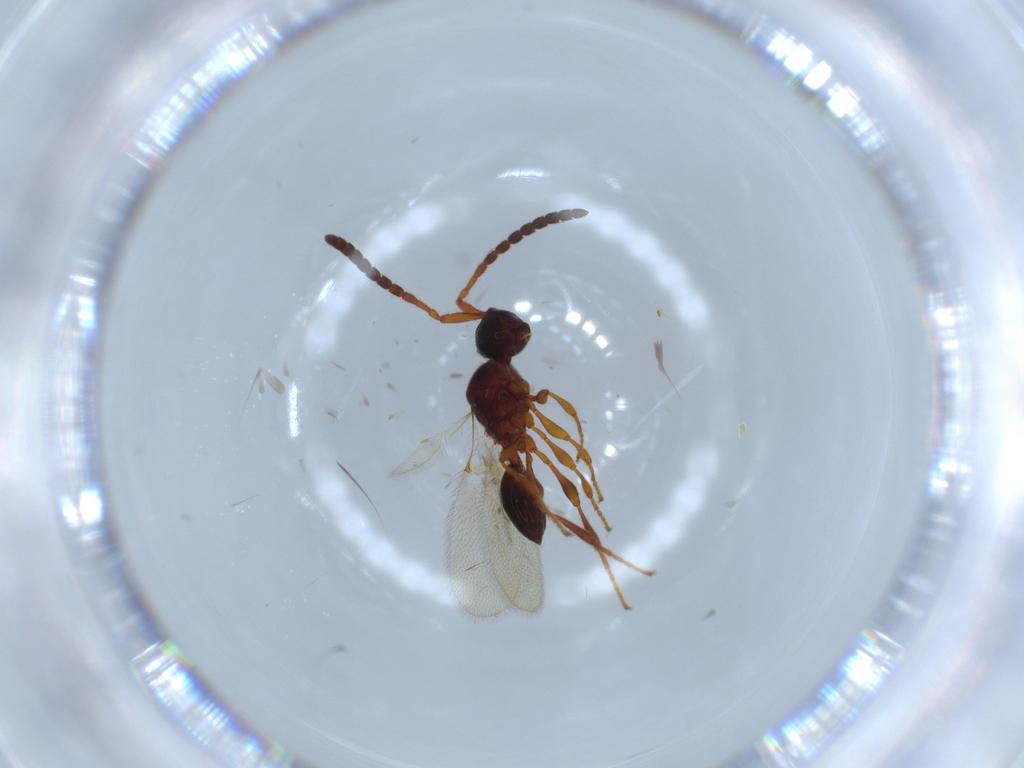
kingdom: Animalia
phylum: Arthropoda
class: Insecta
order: Hymenoptera
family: Diapriidae
